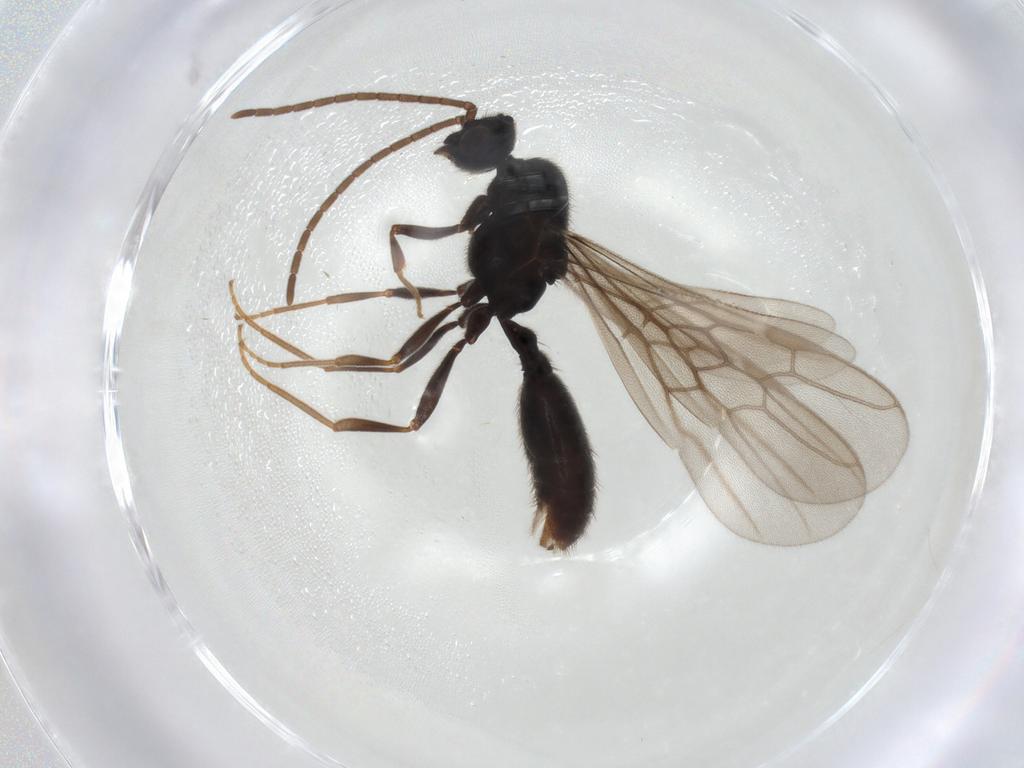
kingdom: Animalia
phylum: Arthropoda
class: Insecta
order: Hymenoptera
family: Formicidae
